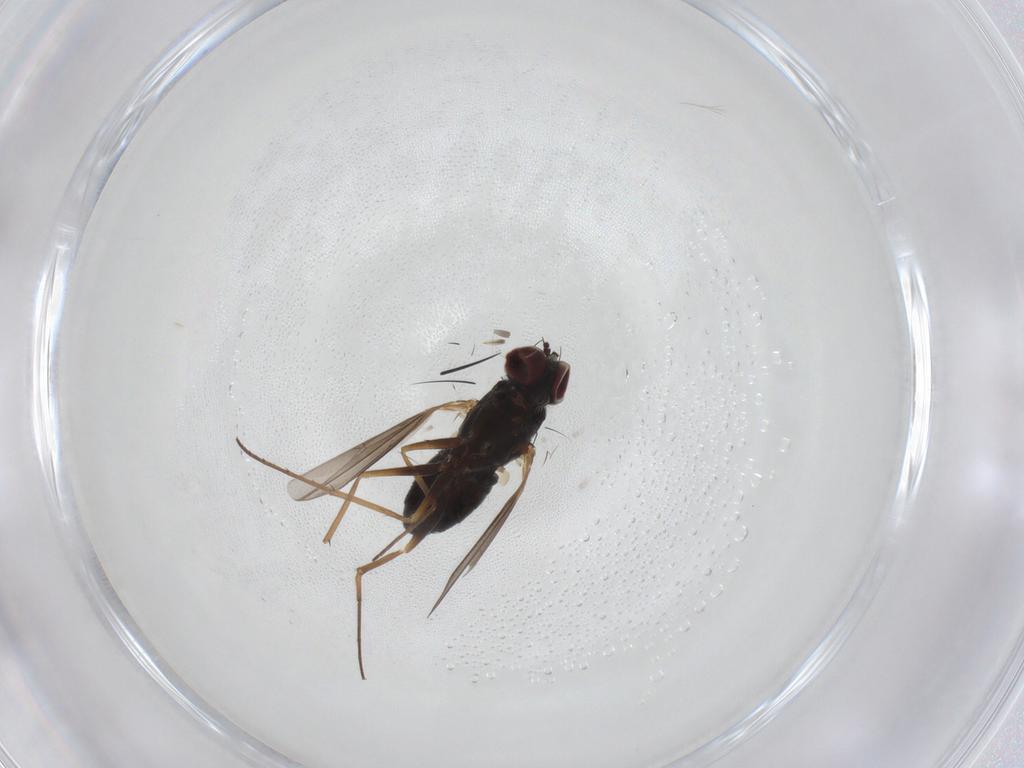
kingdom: Animalia
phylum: Arthropoda
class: Insecta
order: Diptera
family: Dolichopodidae
